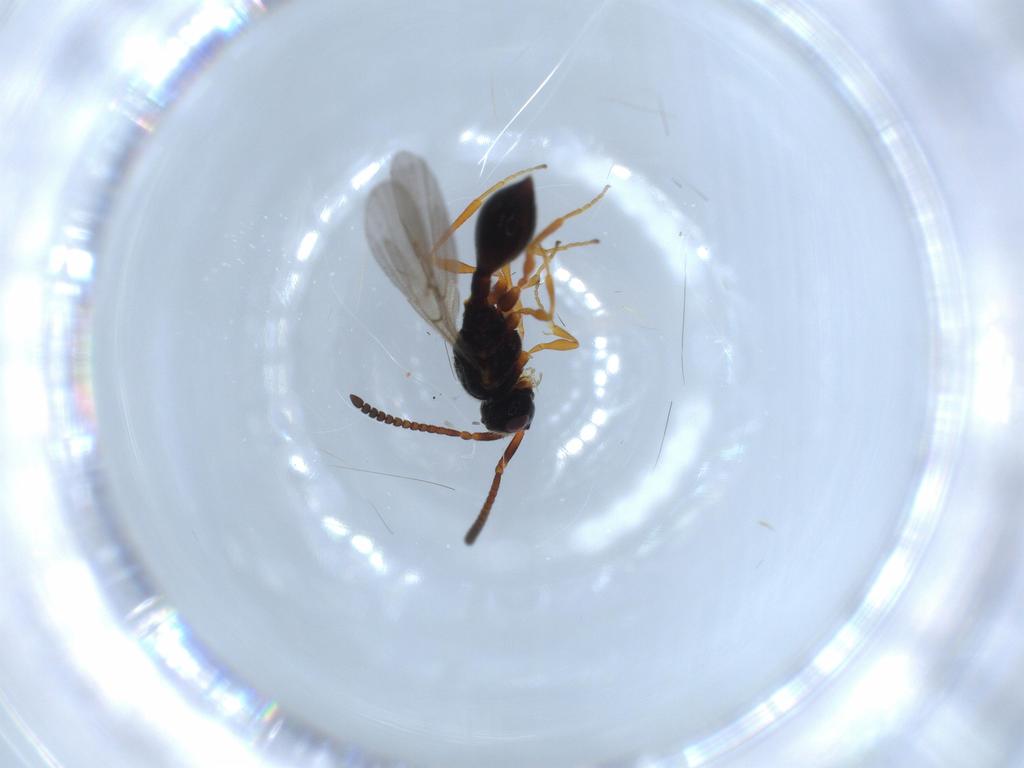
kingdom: Animalia
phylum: Arthropoda
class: Insecta
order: Hymenoptera
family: Diapriidae
